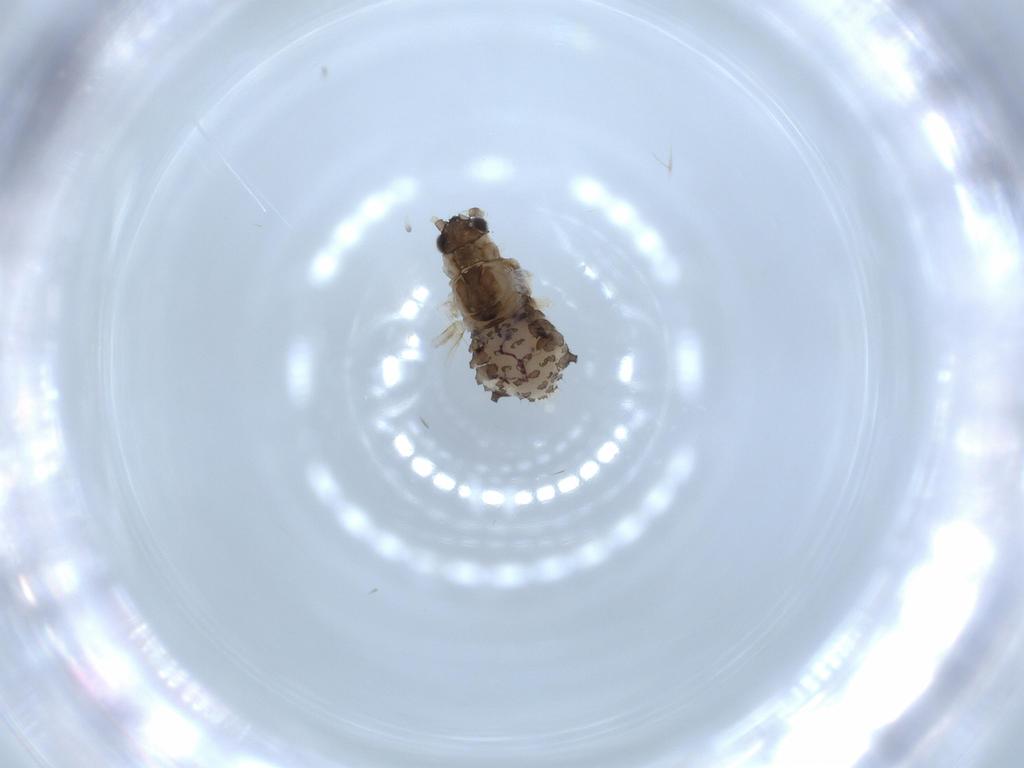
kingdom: Animalia
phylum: Arthropoda
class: Insecta
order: Hemiptera
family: Aphididae
